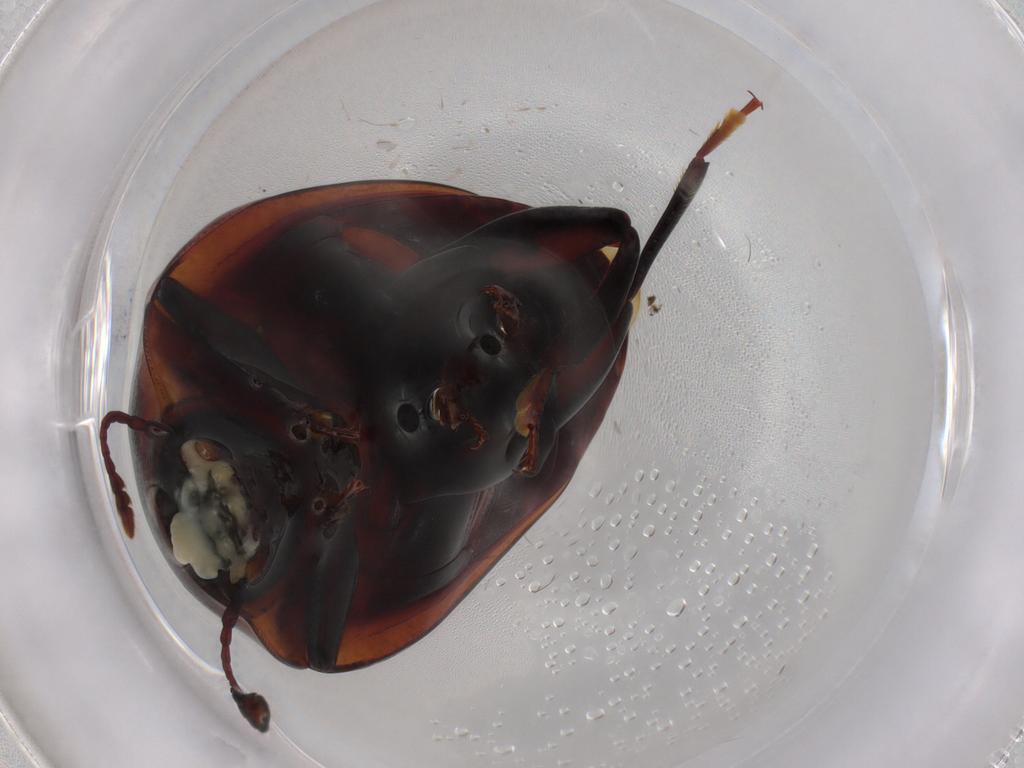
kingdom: Animalia
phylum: Arthropoda
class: Insecta
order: Coleoptera
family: Zopheridae
